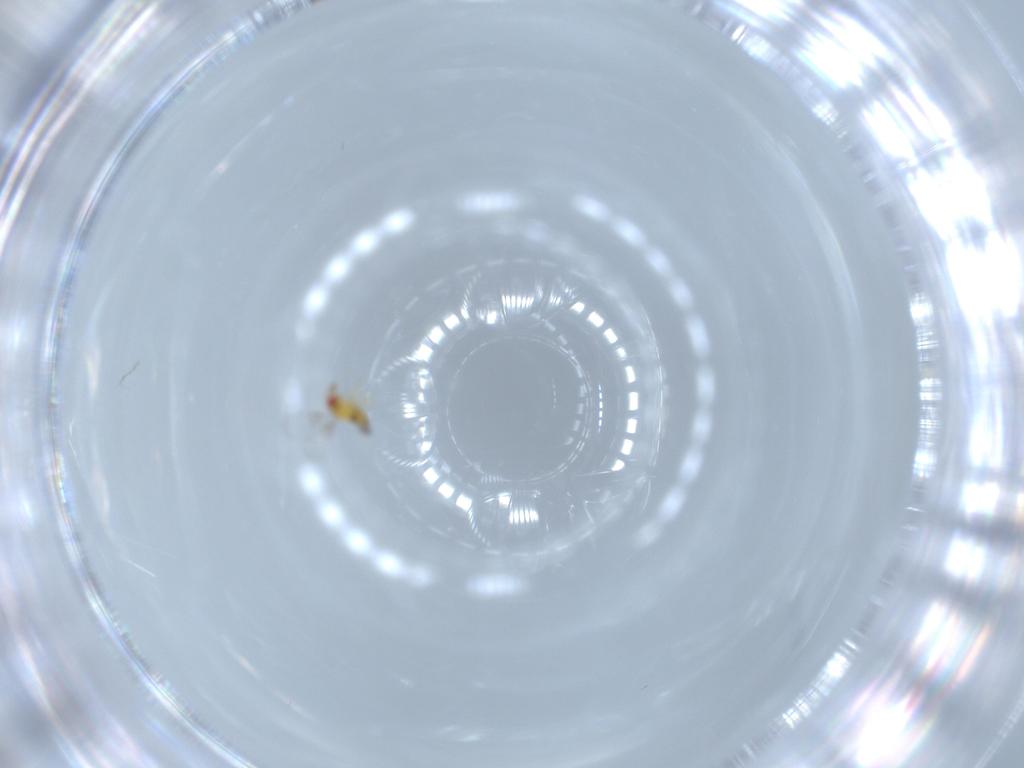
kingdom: Animalia
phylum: Arthropoda
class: Insecta
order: Hymenoptera
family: Trichogrammatidae
